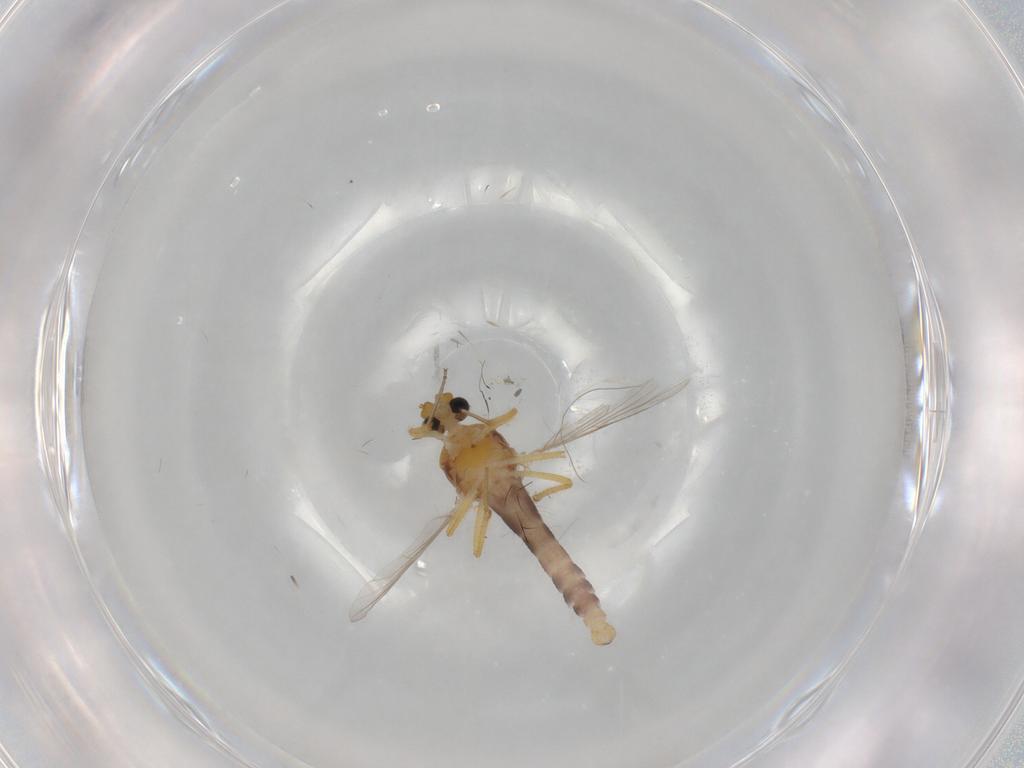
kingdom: Animalia
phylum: Arthropoda
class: Insecta
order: Diptera
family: Ceratopogonidae
